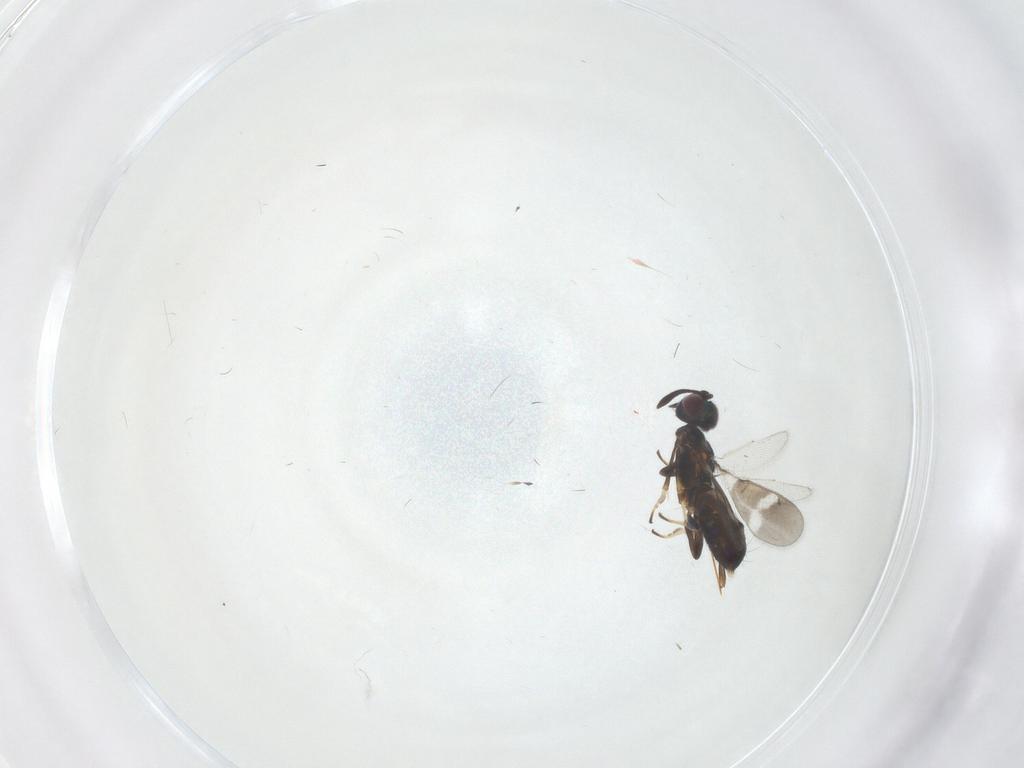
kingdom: Animalia
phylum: Arthropoda
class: Insecta
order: Hymenoptera
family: Eupelmidae
